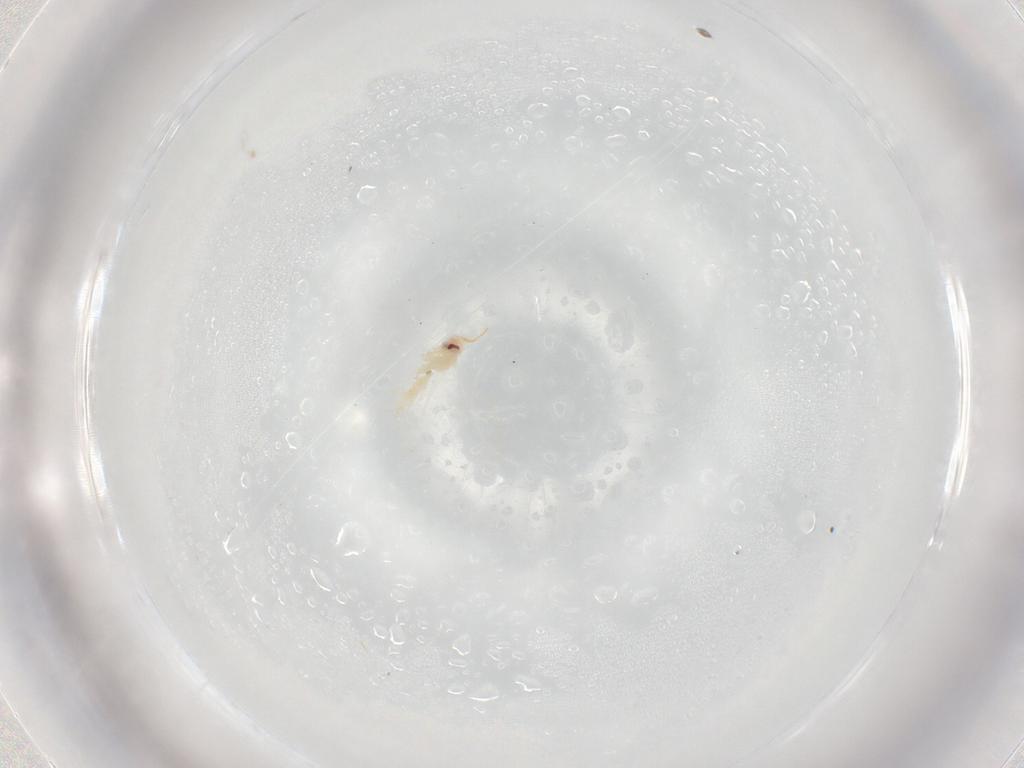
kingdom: Animalia
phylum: Arthropoda
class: Insecta
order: Hemiptera
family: Aleyrodidae
